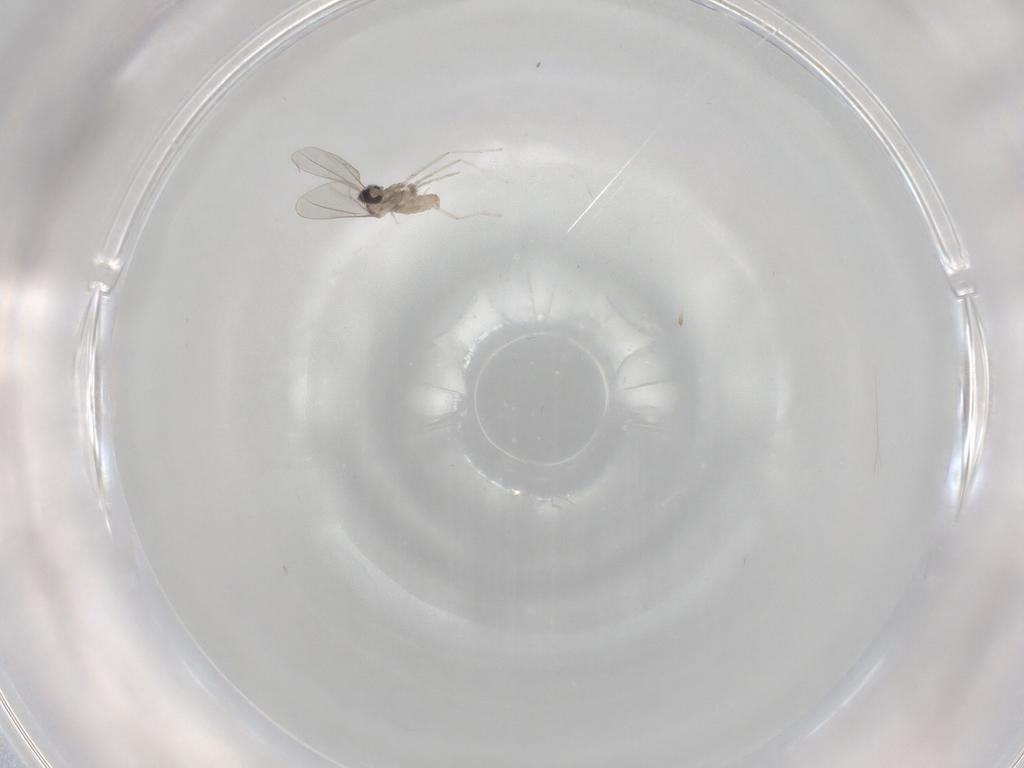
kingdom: Animalia
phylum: Arthropoda
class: Insecta
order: Diptera
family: Cecidomyiidae
